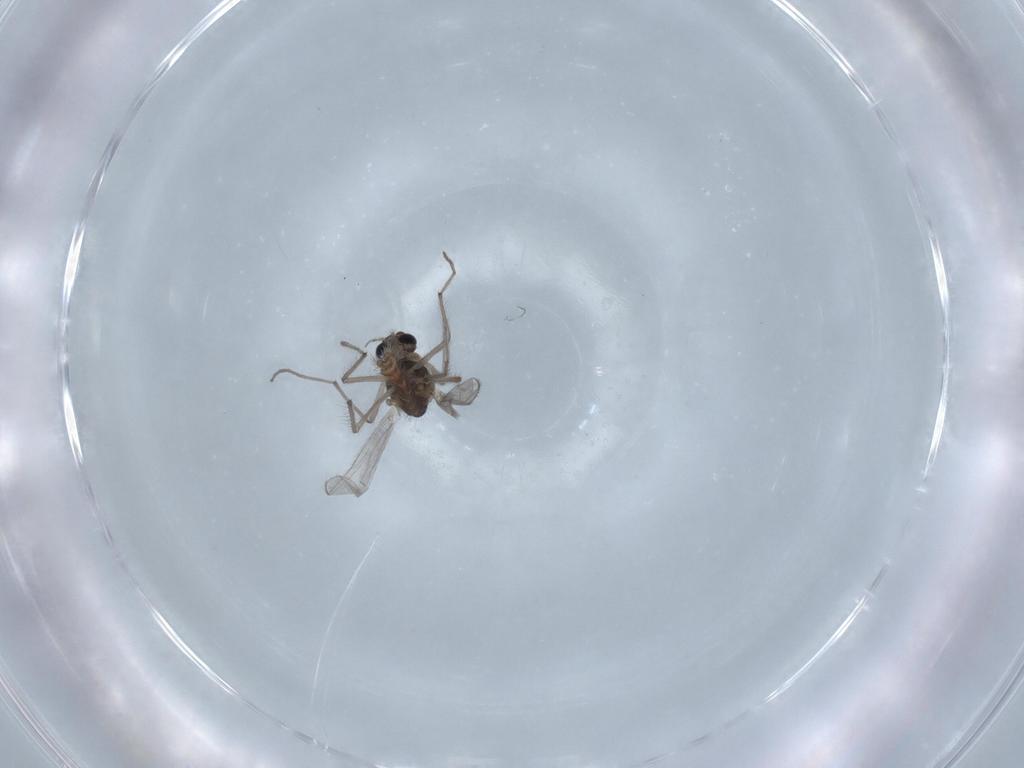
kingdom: Animalia
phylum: Arthropoda
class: Insecta
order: Diptera
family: Chironomidae
